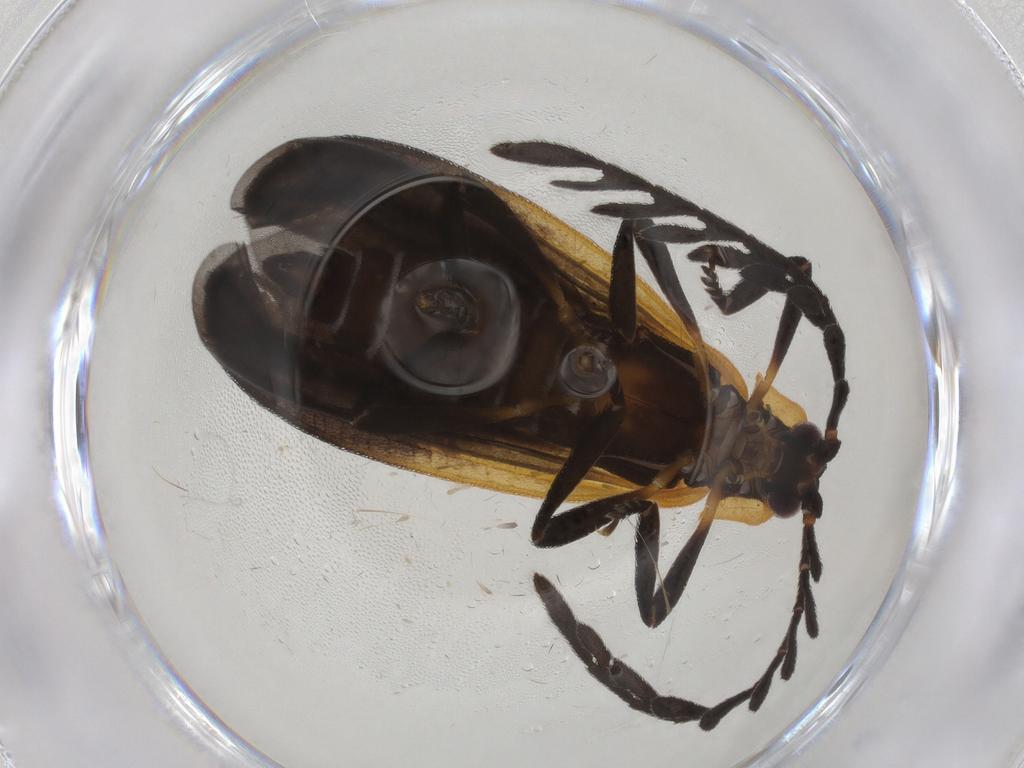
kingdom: Animalia
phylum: Arthropoda
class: Insecta
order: Coleoptera
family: Lycidae
